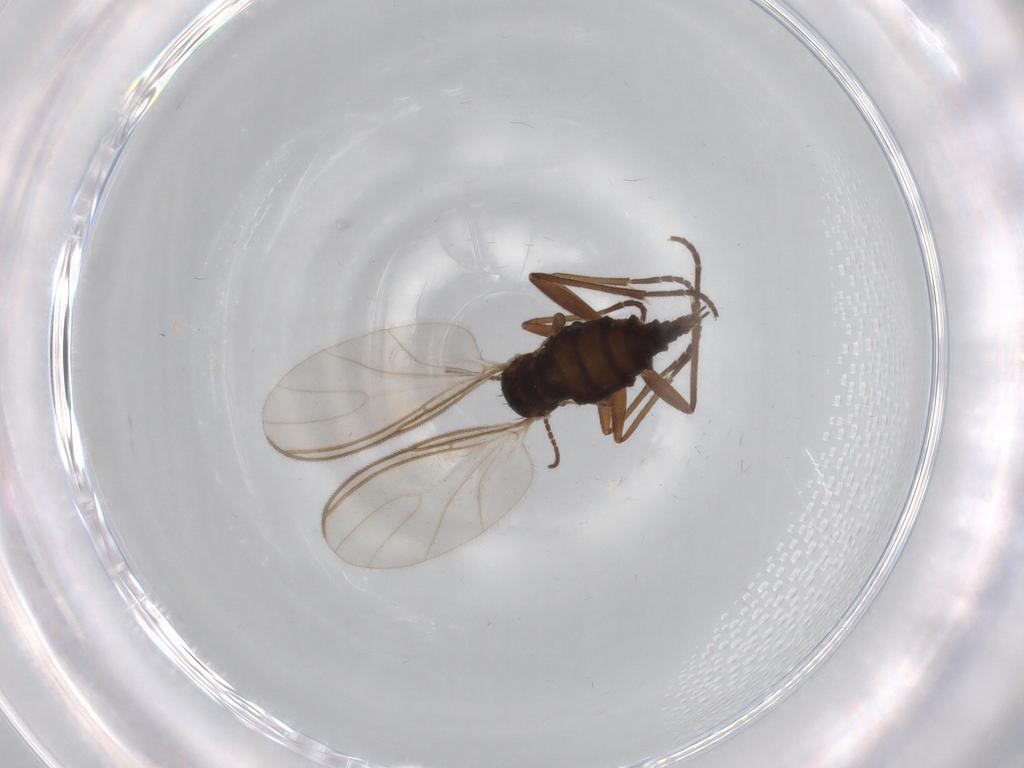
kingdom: Animalia
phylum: Arthropoda
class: Insecta
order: Diptera
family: Sciaridae
